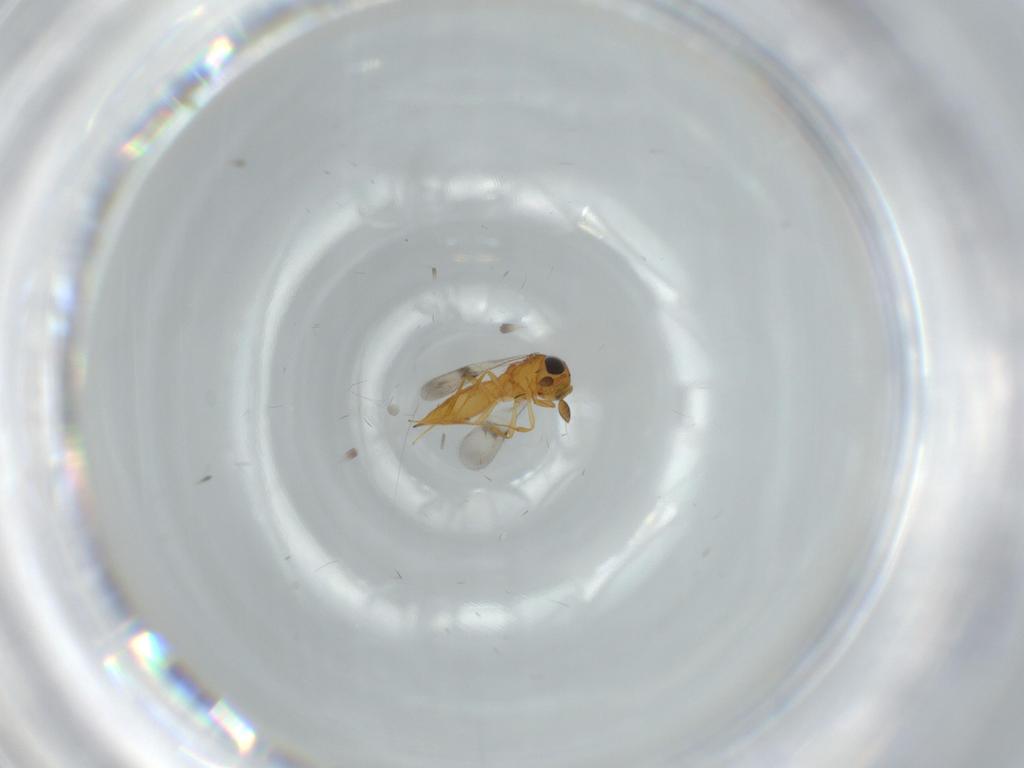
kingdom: Animalia
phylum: Arthropoda
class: Insecta
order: Hymenoptera
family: Scelionidae
